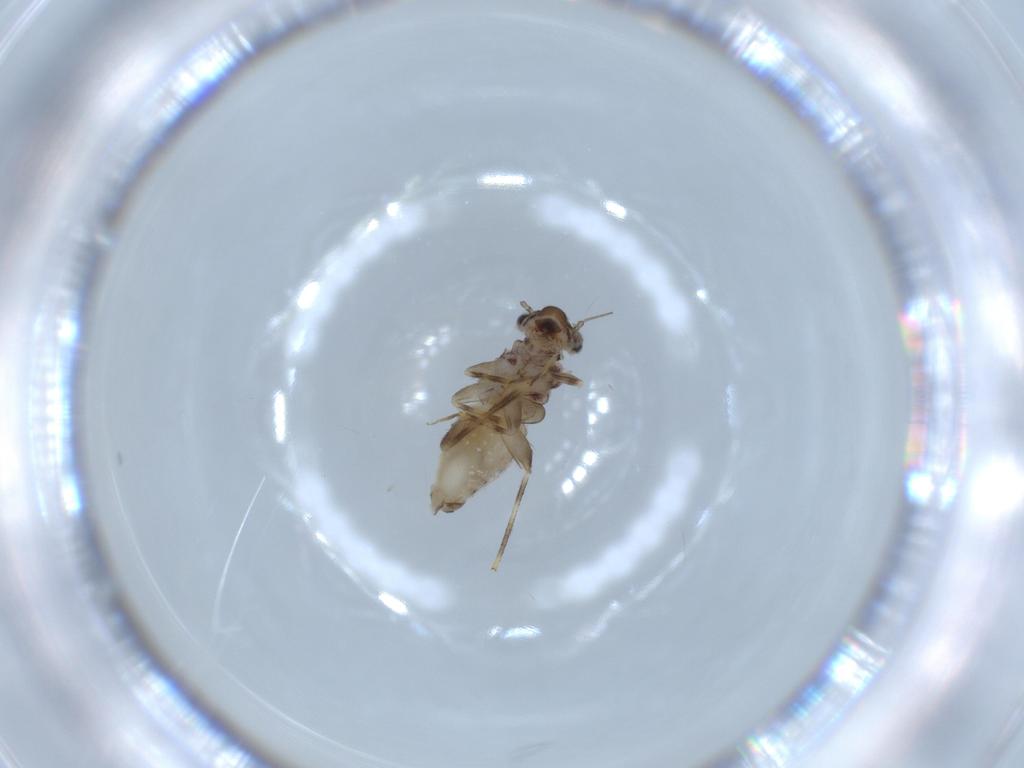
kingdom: Animalia
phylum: Arthropoda
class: Insecta
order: Psocodea
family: Lepidopsocidae
